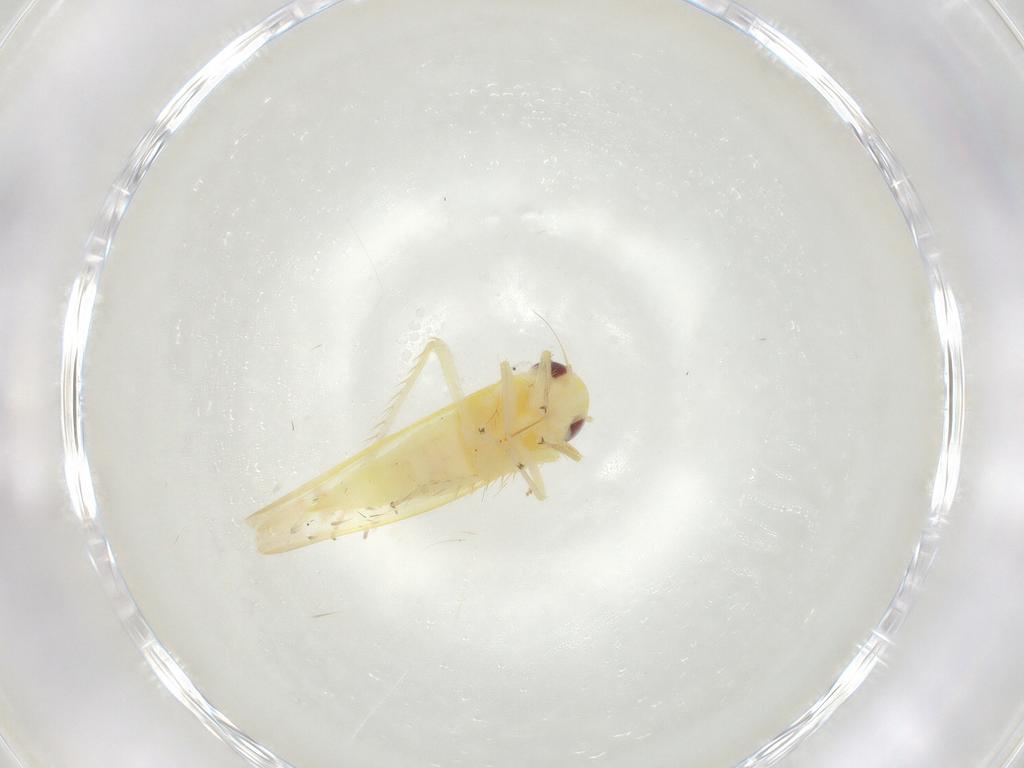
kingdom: Animalia
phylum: Arthropoda
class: Insecta
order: Hemiptera
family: Cicadellidae
